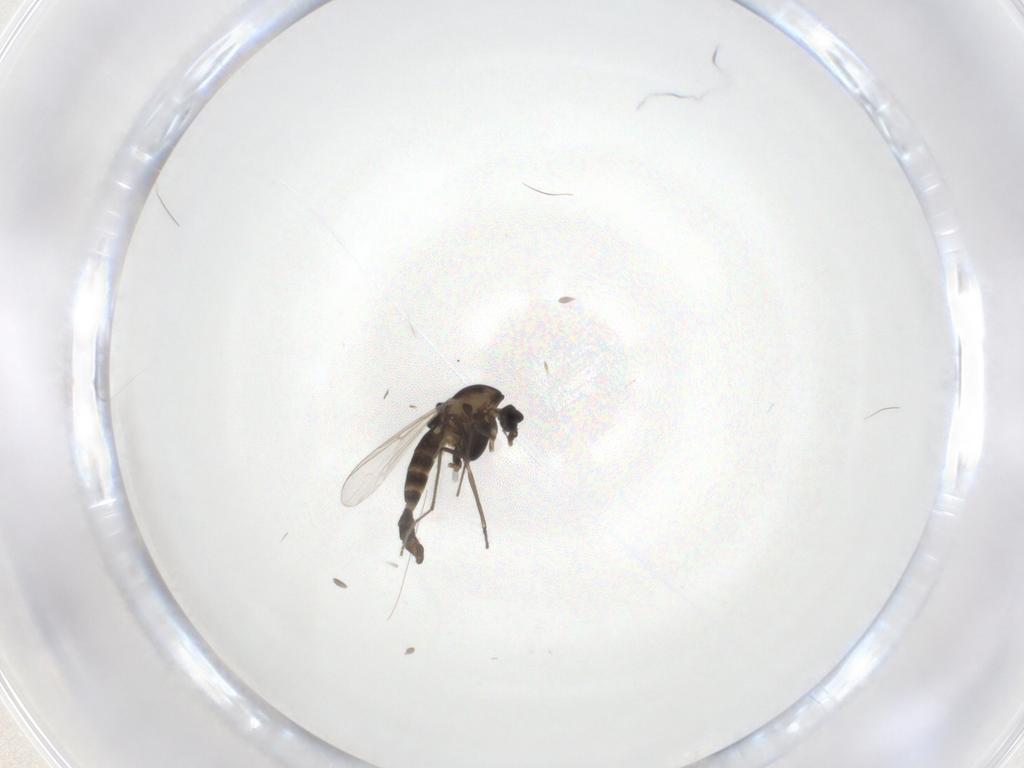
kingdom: Animalia
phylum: Arthropoda
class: Insecta
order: Diptera
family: Chironomidae
